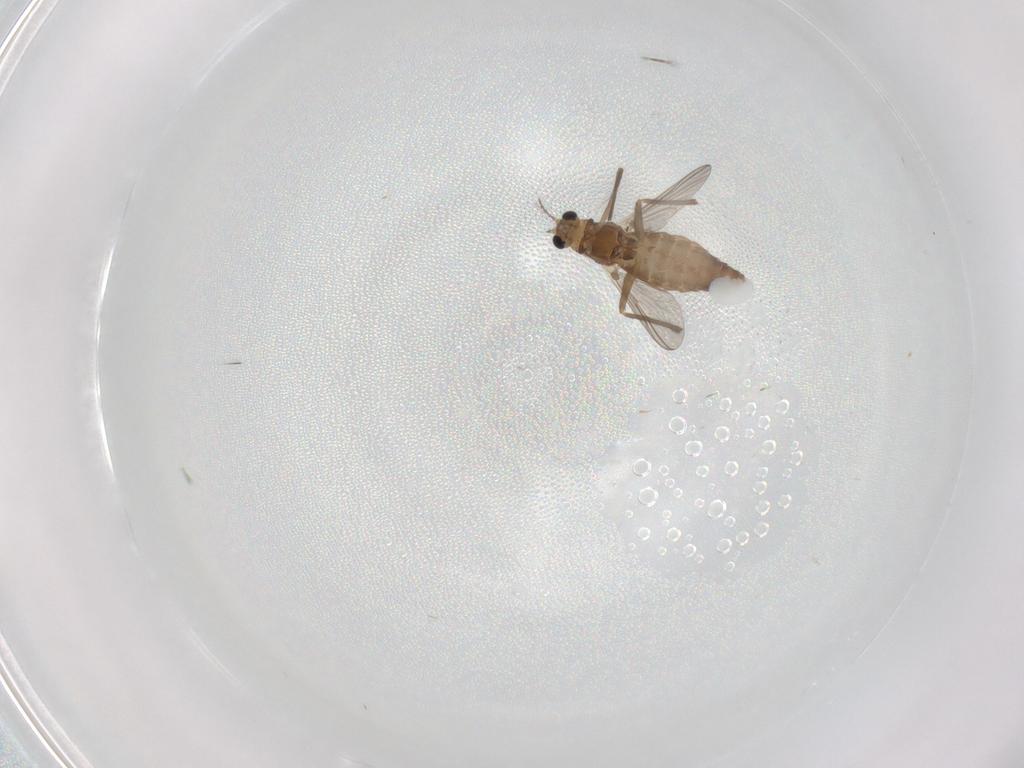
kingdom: Animalia
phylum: Arthropoda
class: Insecta
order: Diptera
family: Chironomidae
